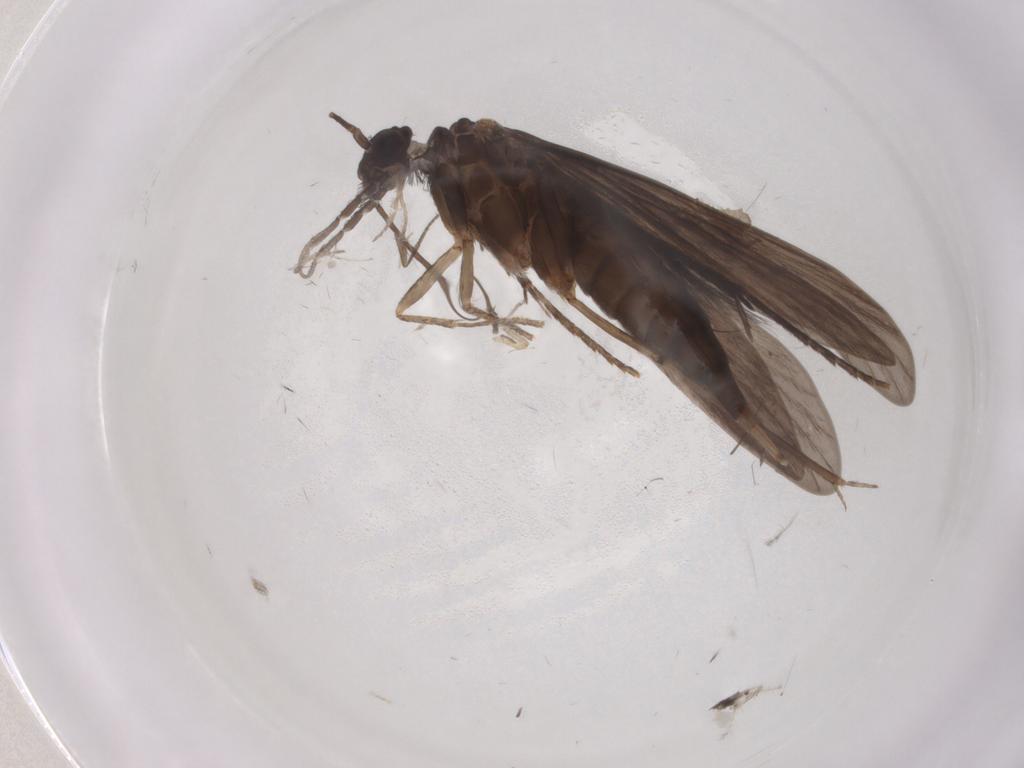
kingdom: Animalia
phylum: Arthropoda
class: Insecta
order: Trichoptera
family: Xiphocentronidae
